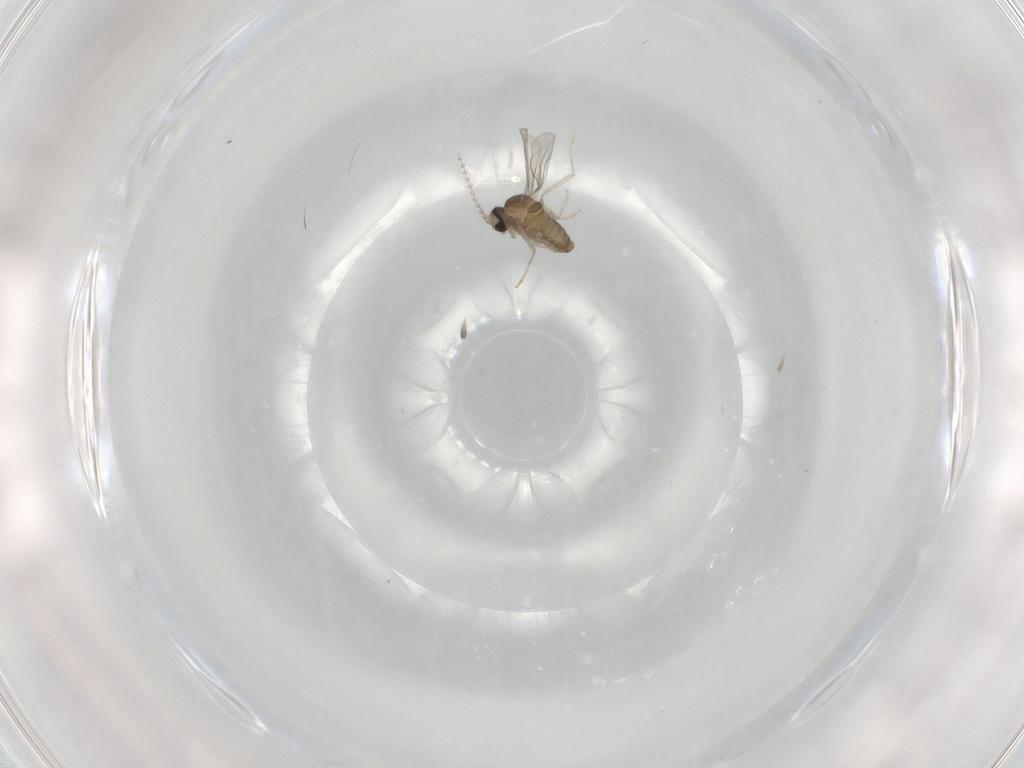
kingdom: Animalia
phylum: Arthropoda
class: Insecta
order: Diptera
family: Cecidomyiidae
